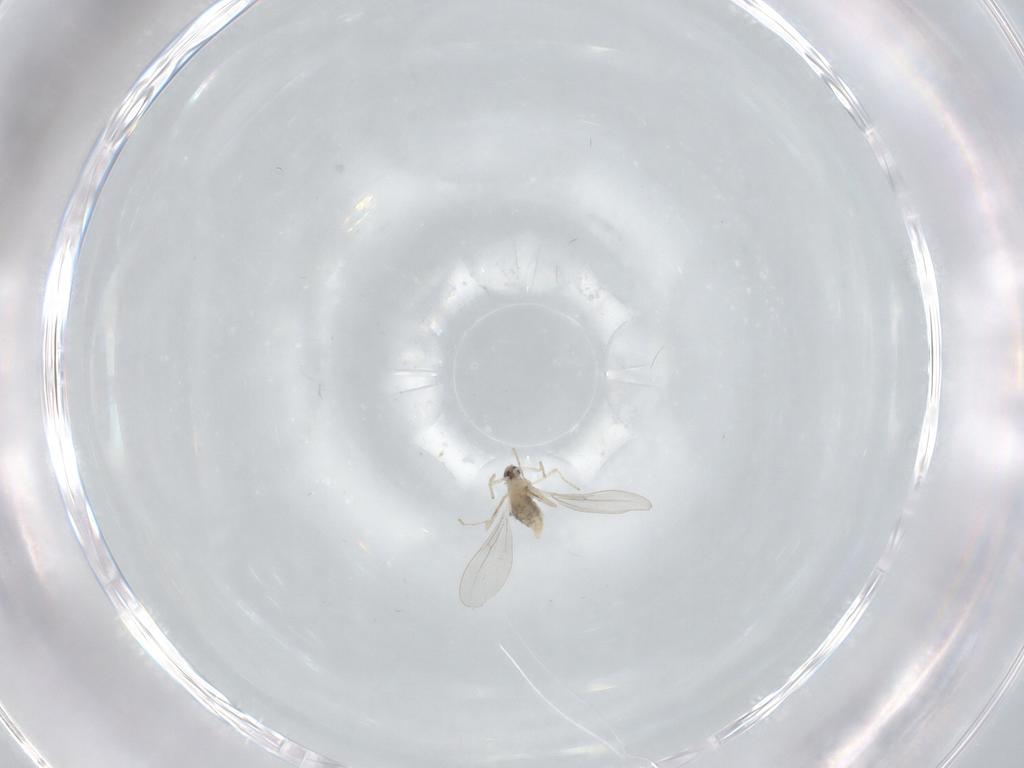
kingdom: Animalia
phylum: Arthropoda
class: Insecta
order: Diptera
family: Cecidomyiidae
